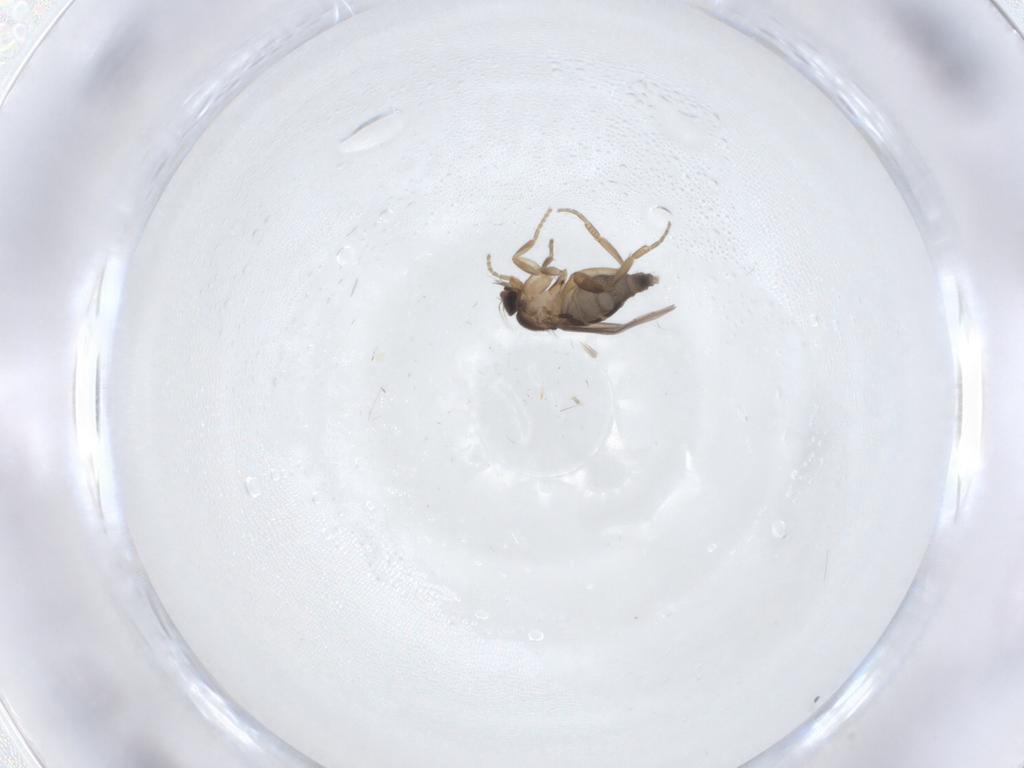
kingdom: Animalia
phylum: Arthropoda
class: Insecta
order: Diptera
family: Phoridae
